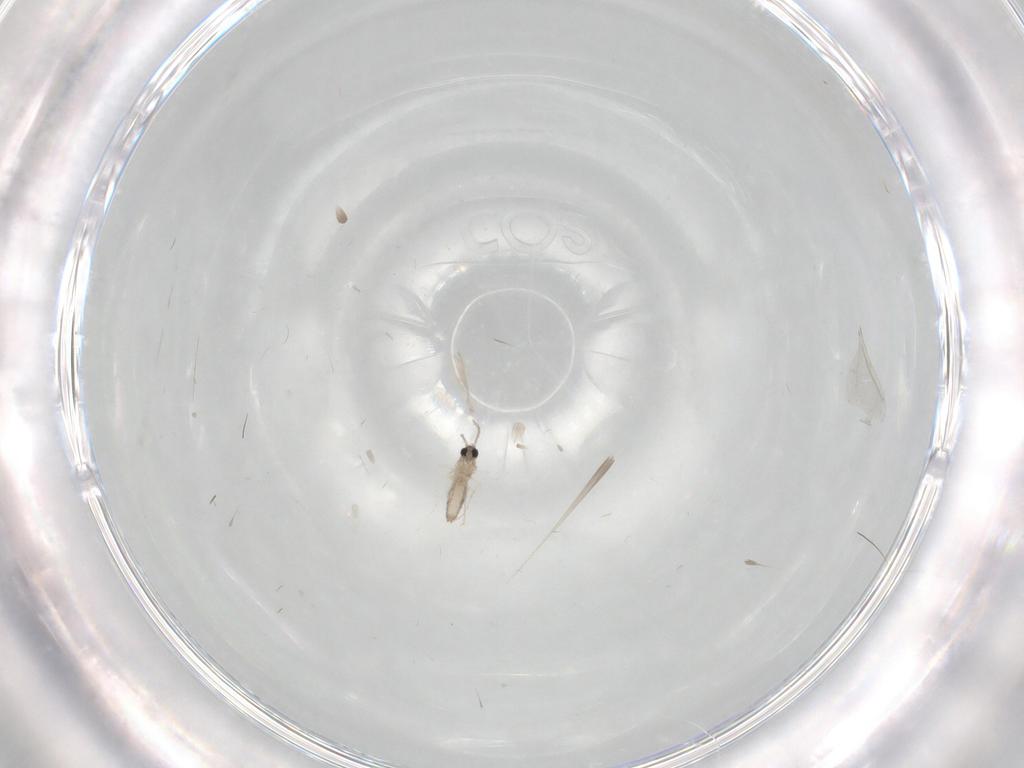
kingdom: Animalia
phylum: Arthropoda
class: Insecta
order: Diptera
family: Cecidomyiidae
